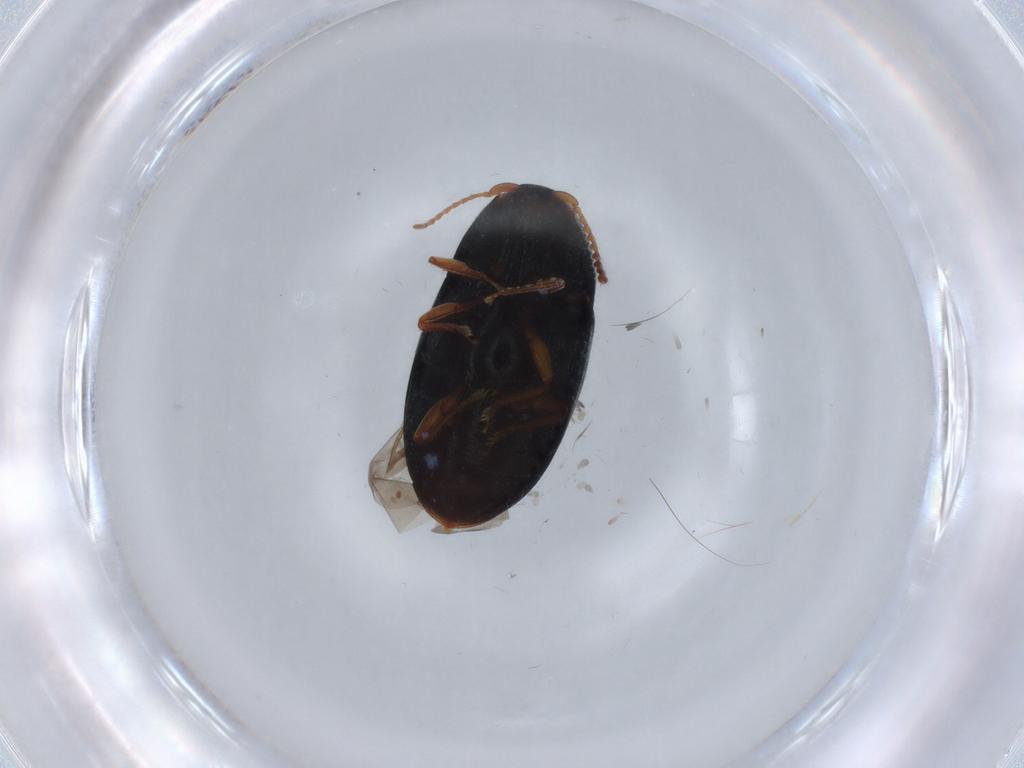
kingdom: Animalia
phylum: Arthropoda
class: Insecta
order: Coleoptera
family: Elateridae
